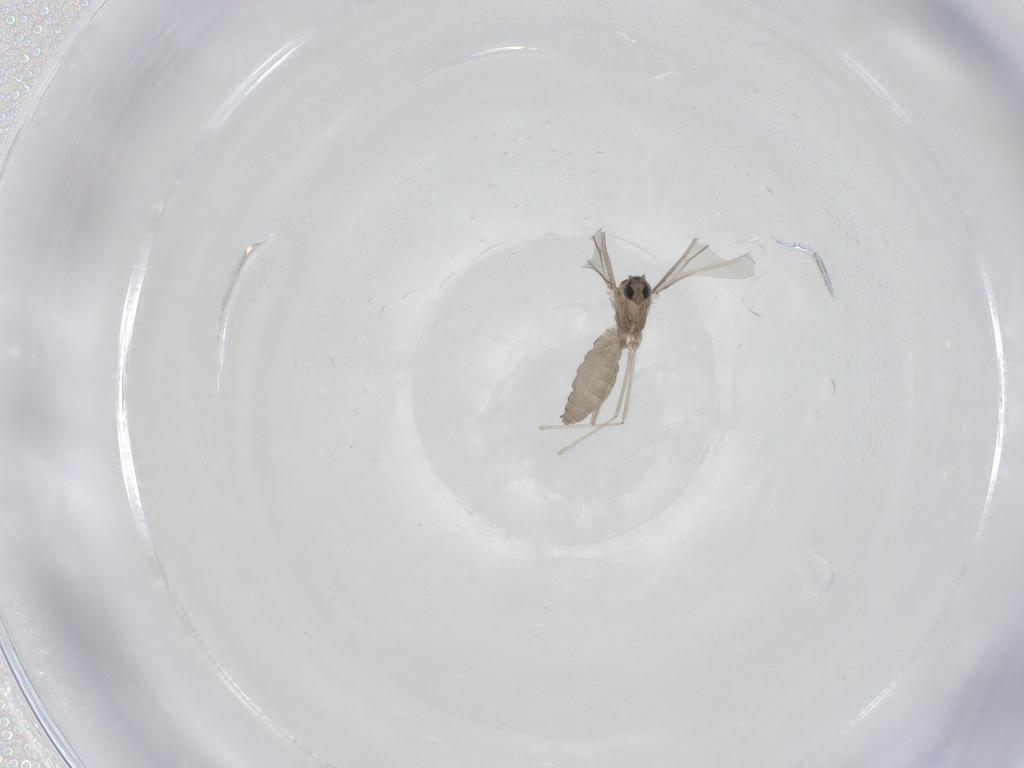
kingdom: Animalia
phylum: Arthropoda
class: Insecta
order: Diptera
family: Cecidomyiidae
